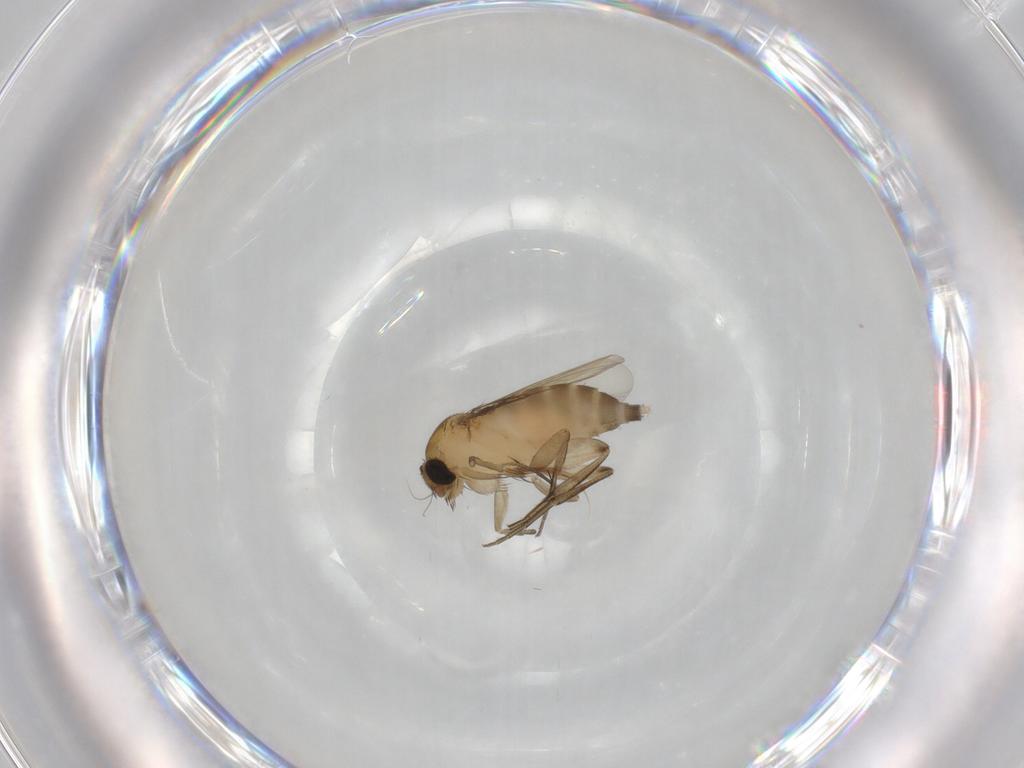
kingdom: Animalia
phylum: Arthropoda
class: Insecta
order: Diptera
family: Phoridae
